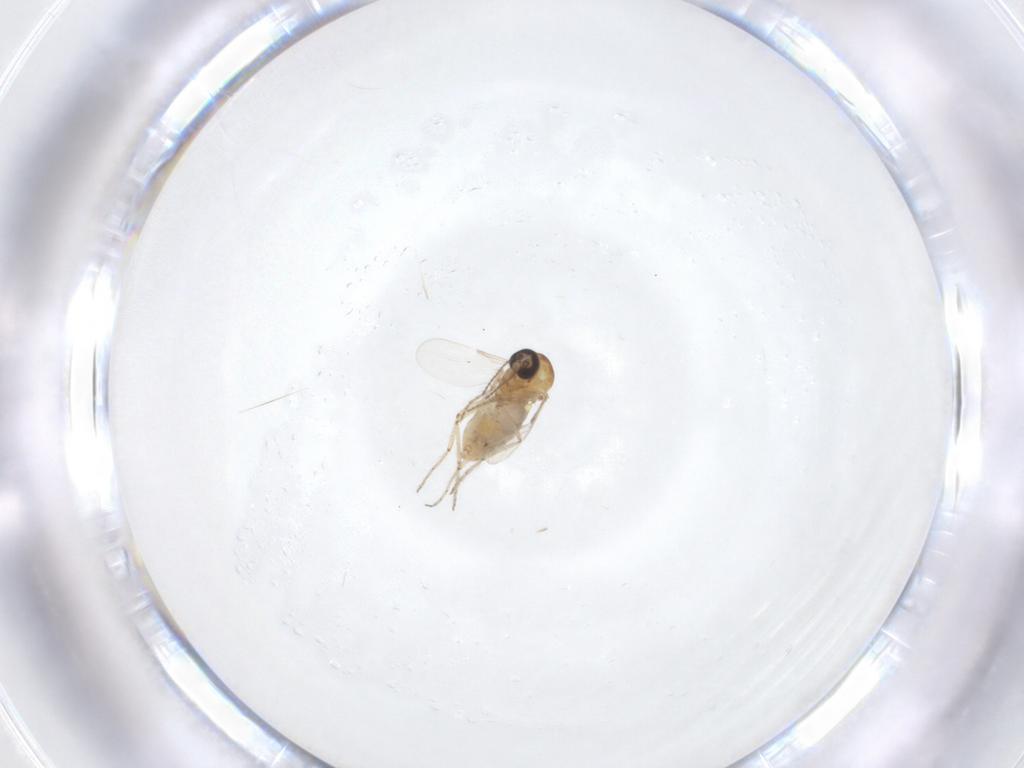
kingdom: Animalia
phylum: Arthropoda
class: Insecta
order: Diptera
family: Ceratopogonidae
